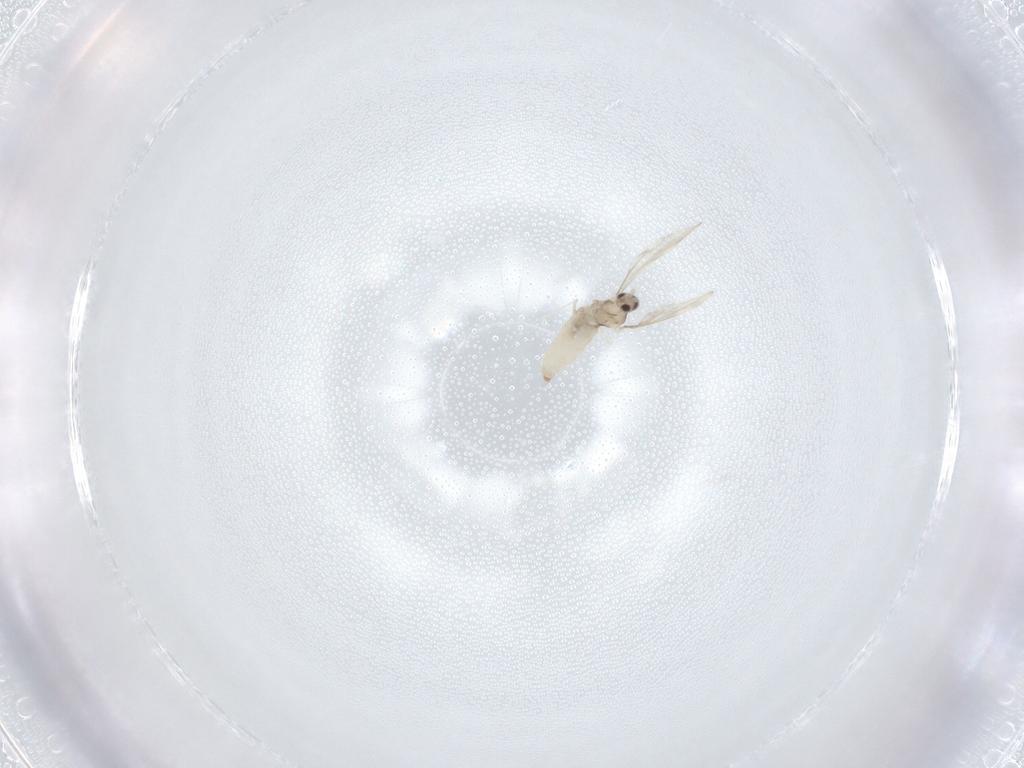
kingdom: Animalia
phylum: Arthropoda
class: Insecta
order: Diptera
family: Cecidomyiidae
